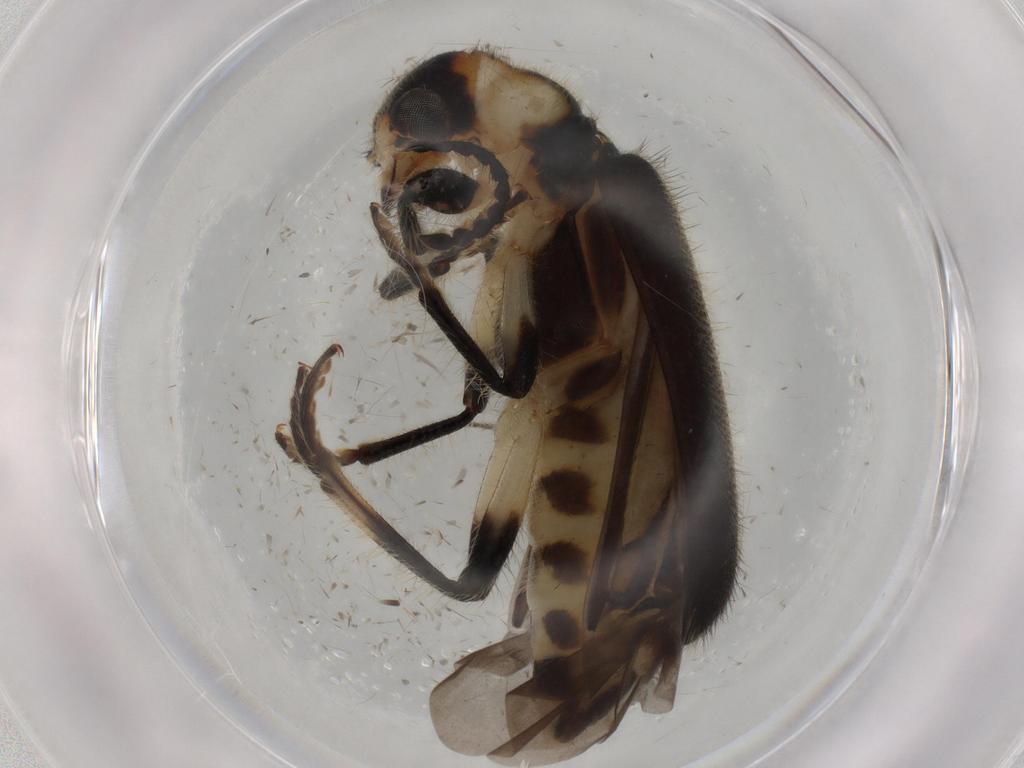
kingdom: Animalia
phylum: Arthropoda
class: Insecta
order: Coleoptera
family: Coccinellidae
